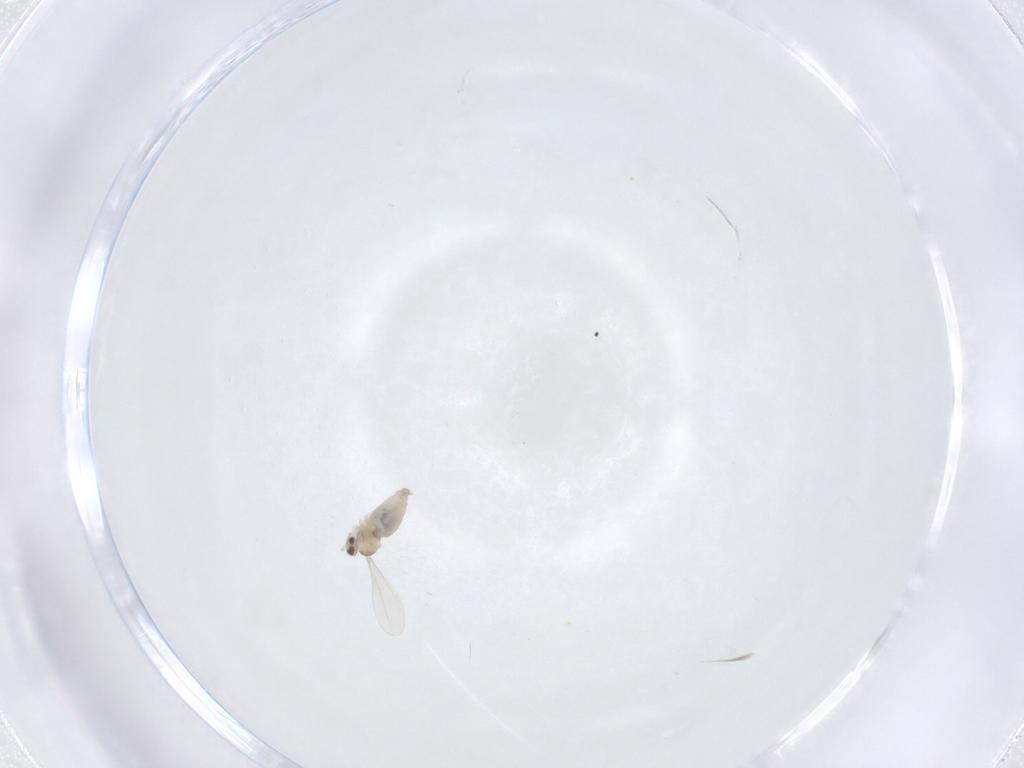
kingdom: Animalia
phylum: Arthropoda
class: Insecta
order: Diptera
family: Cecidomyiidae
